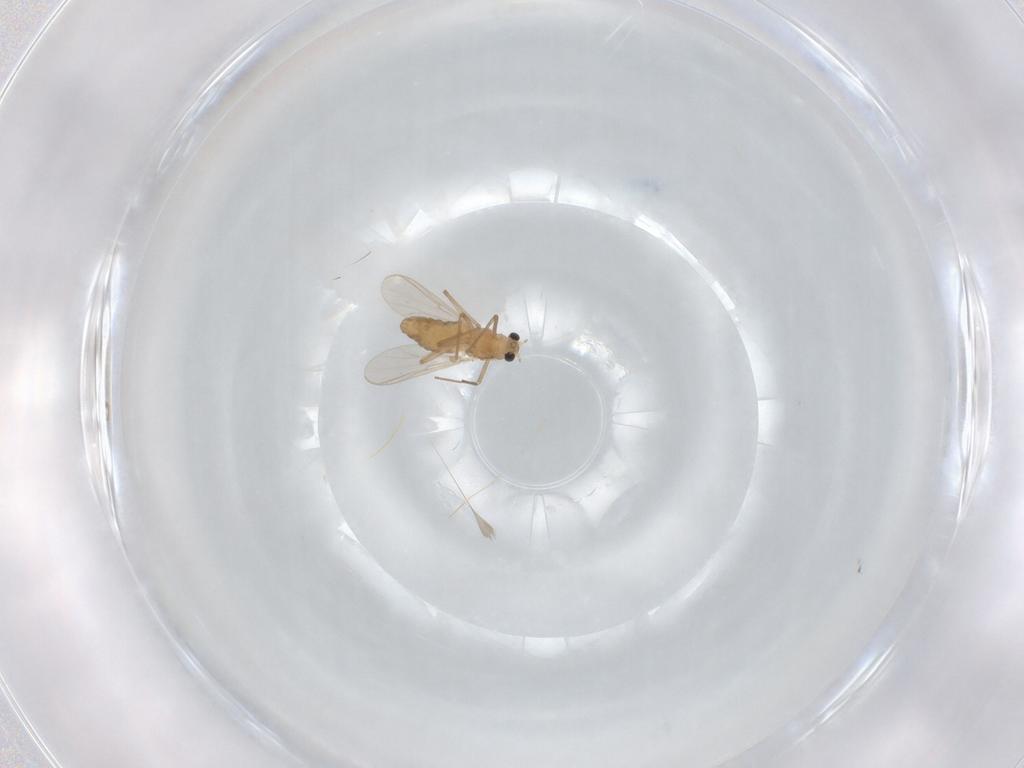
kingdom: Animalia
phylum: Arthropoda
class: Insecta
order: Diptera
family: Chironomidae
